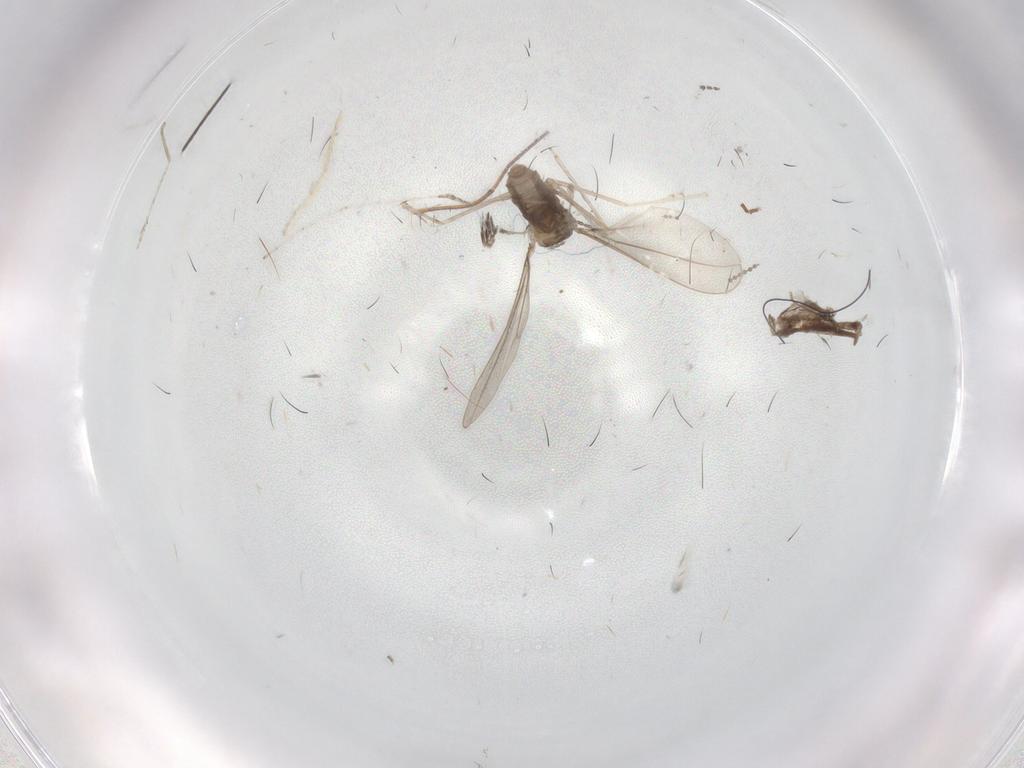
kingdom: Animalia
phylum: Arthropoda
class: Insecta
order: Diptera
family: Cecidomyiidae
